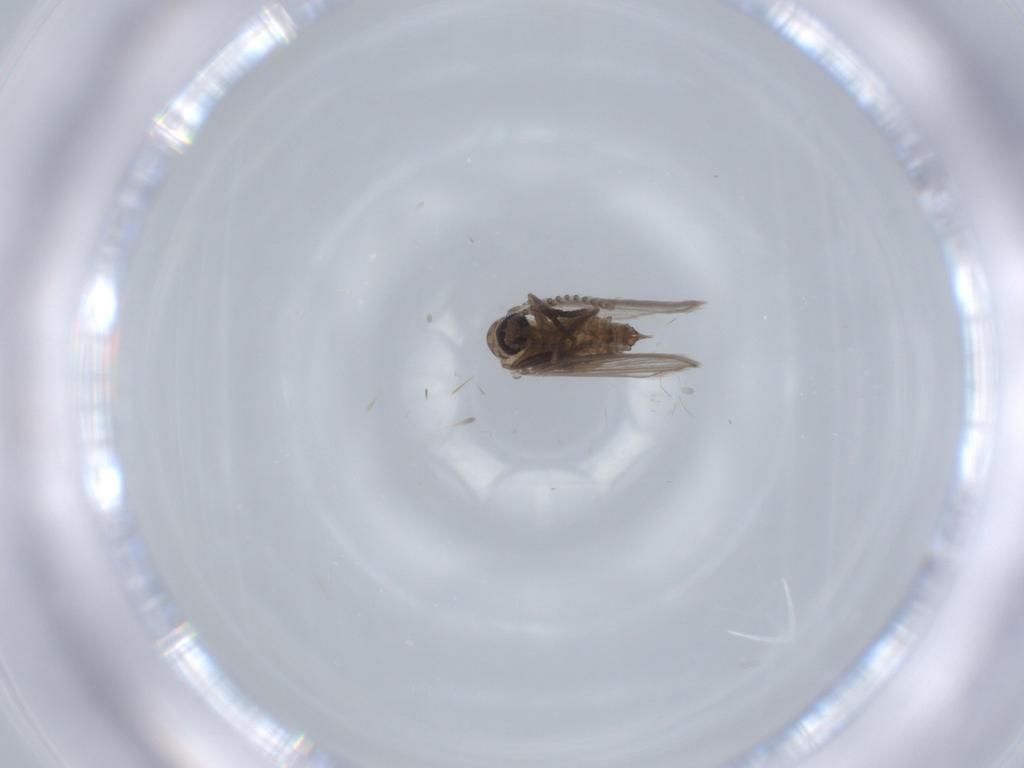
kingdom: Animalia
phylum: Arthropoda
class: Insecta
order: Diptera
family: Psychodidae
